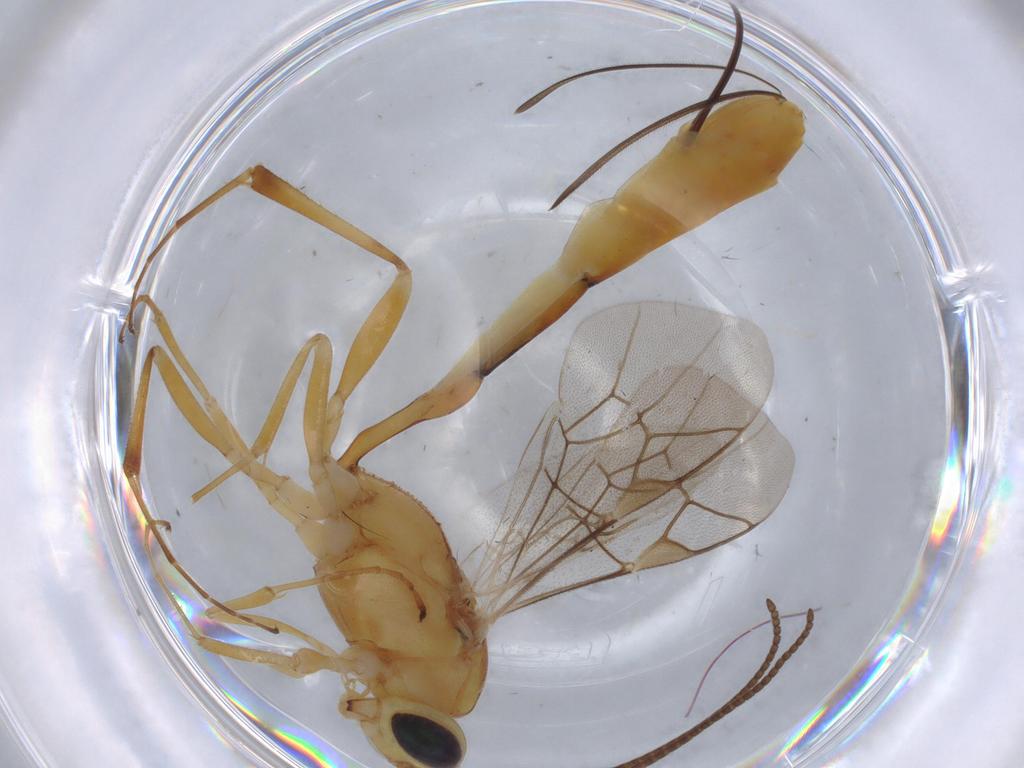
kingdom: Animalia
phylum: Arthropoda
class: Insecta
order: Hymenoptera
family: Ichneumonidae
